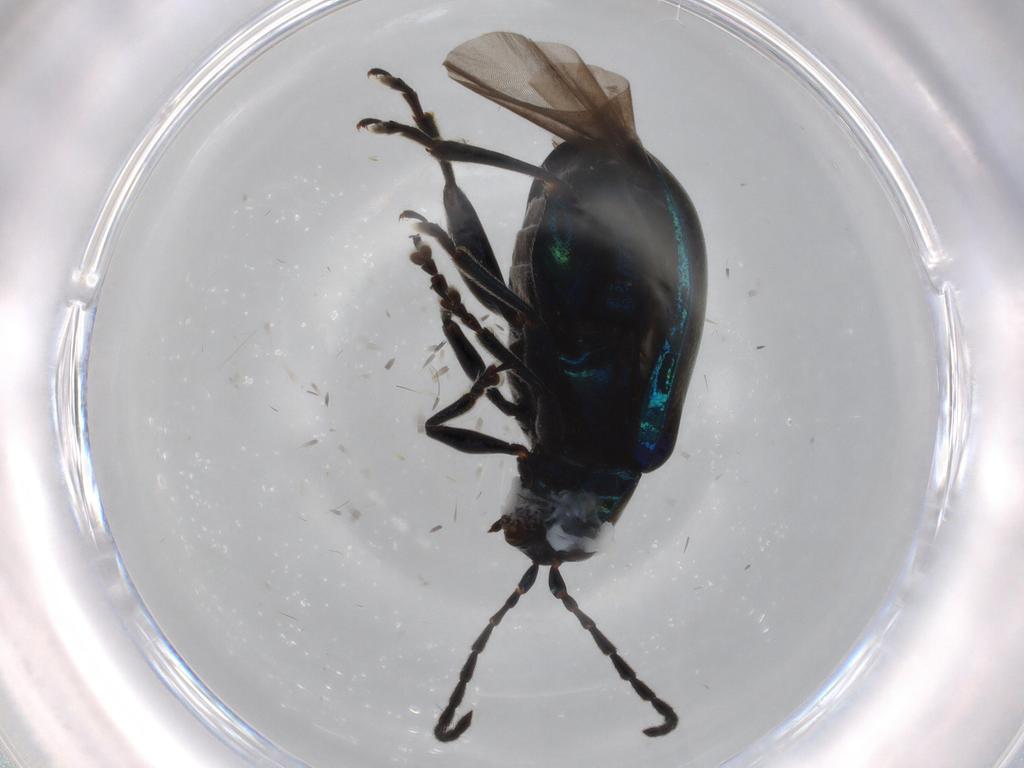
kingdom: Animalia
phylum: Arthropoda
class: Insecta
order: Coleoptera
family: Chrysomelidae
